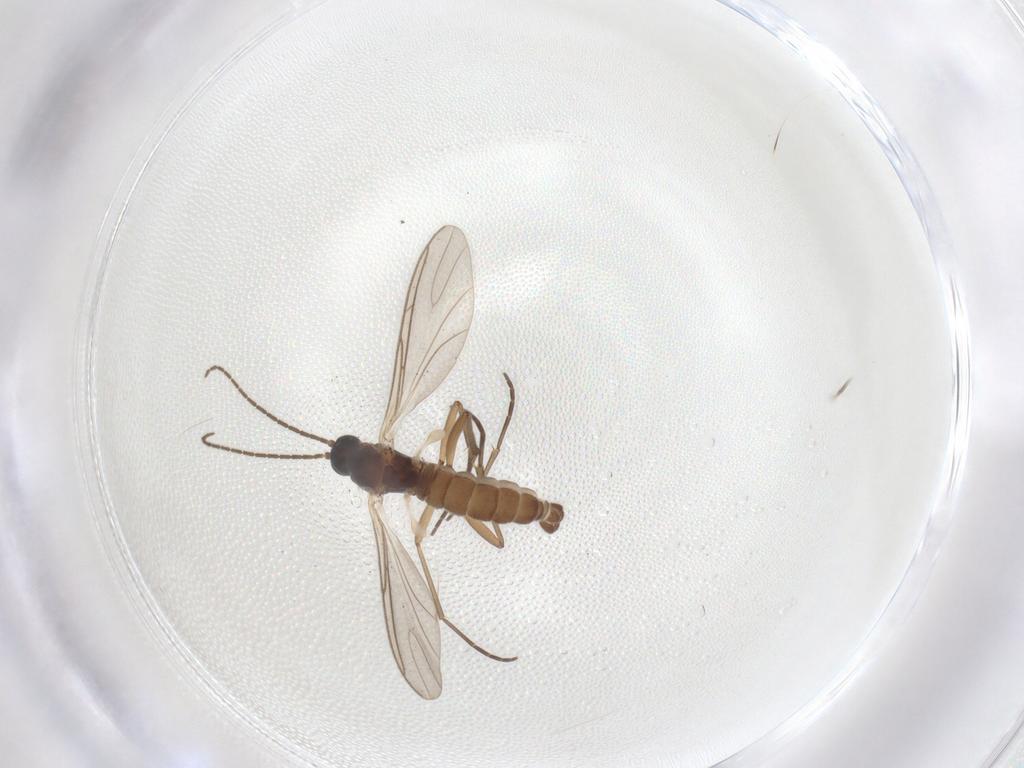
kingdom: Animalia
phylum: Arthropoda
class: Insecta
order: Diptera
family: Sciaridae
